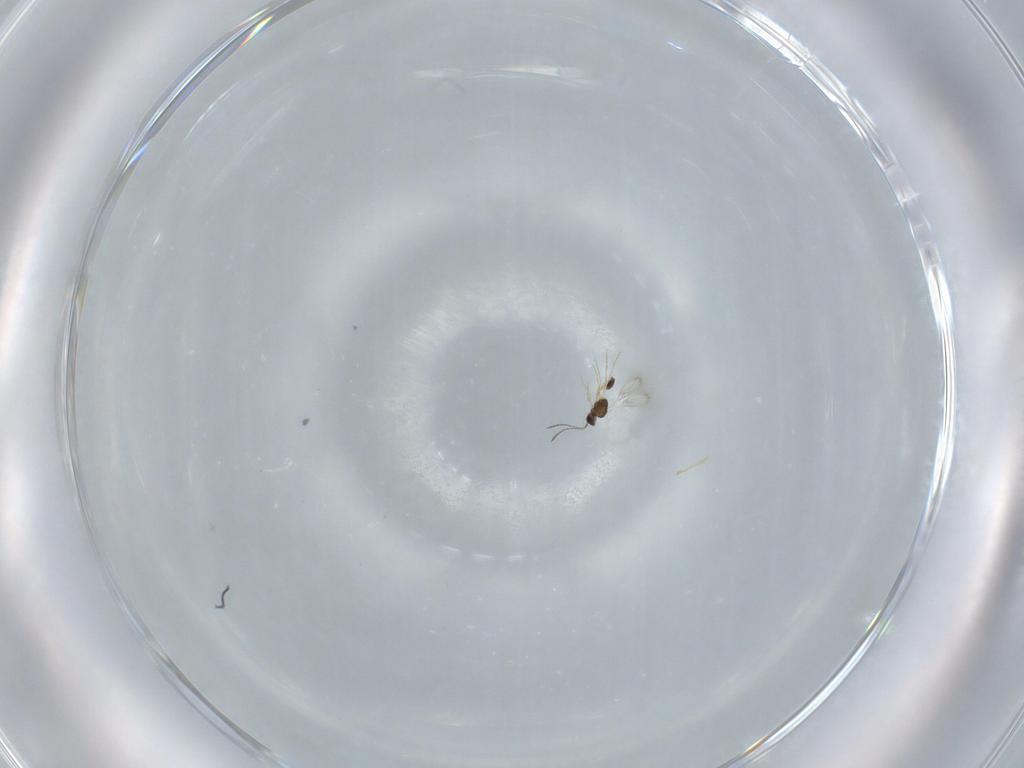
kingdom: Animalia
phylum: Arthropoda
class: Insecta
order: Hymenoptera
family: Mymarommatidae
